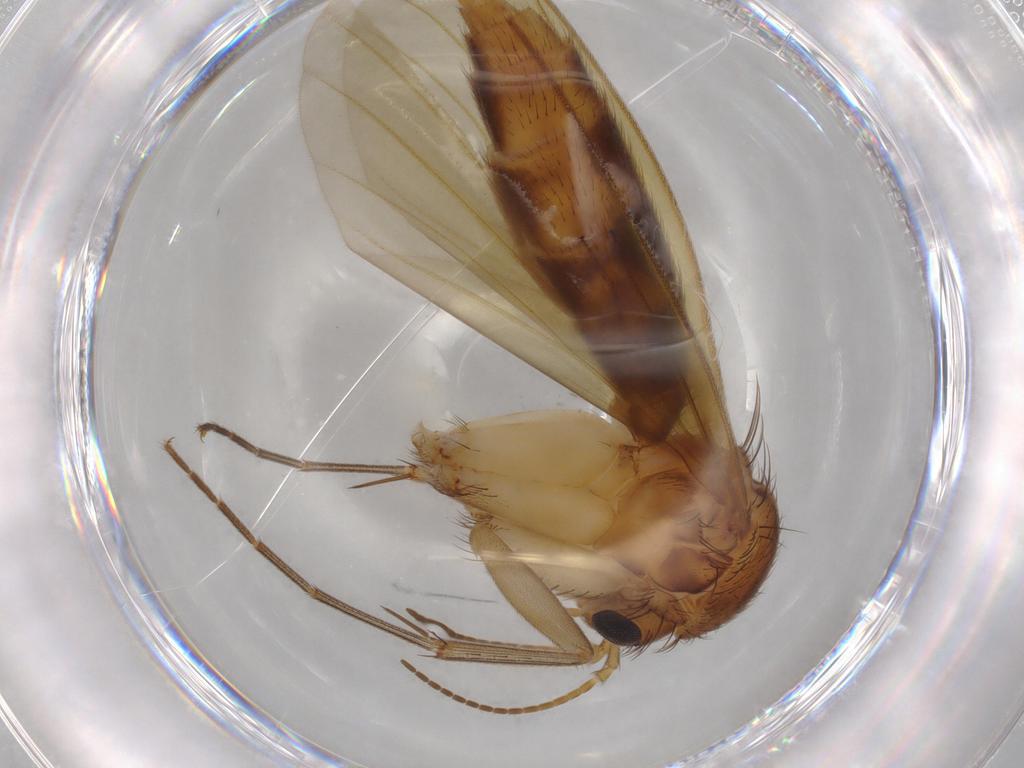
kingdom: Animalia
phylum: Arthropoda
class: Insecta
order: Diptera
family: Mycetophilidae
